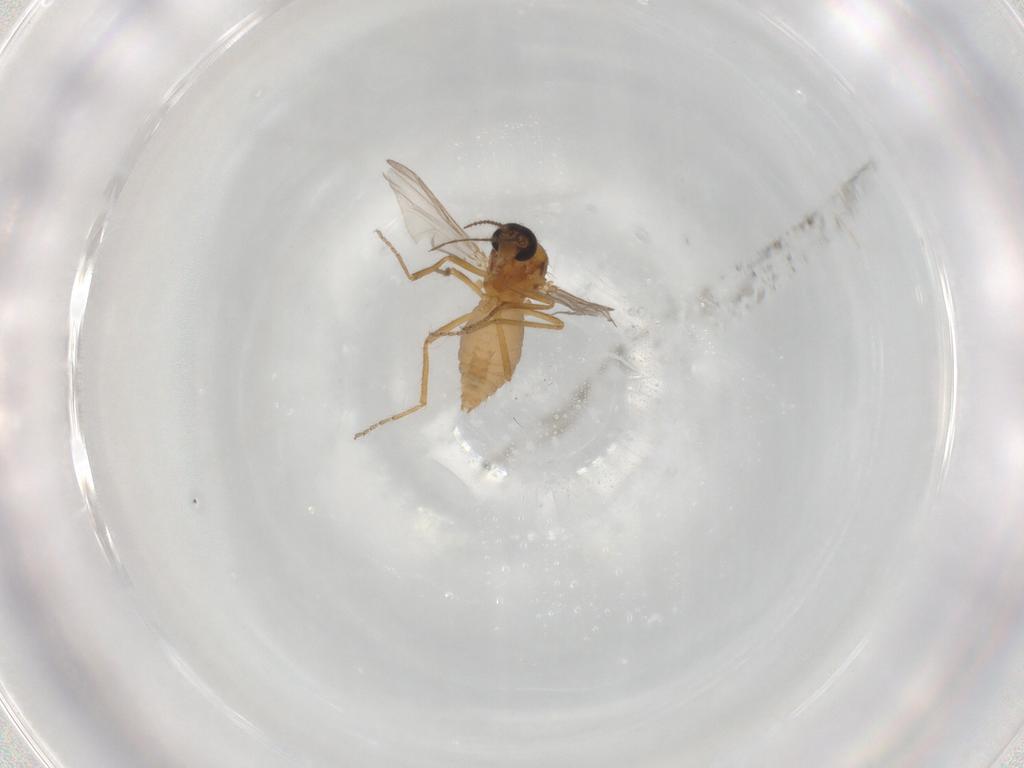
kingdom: Animalia
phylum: Arthropoda
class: Insecta
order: Diptera
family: Ceratopogonidae
